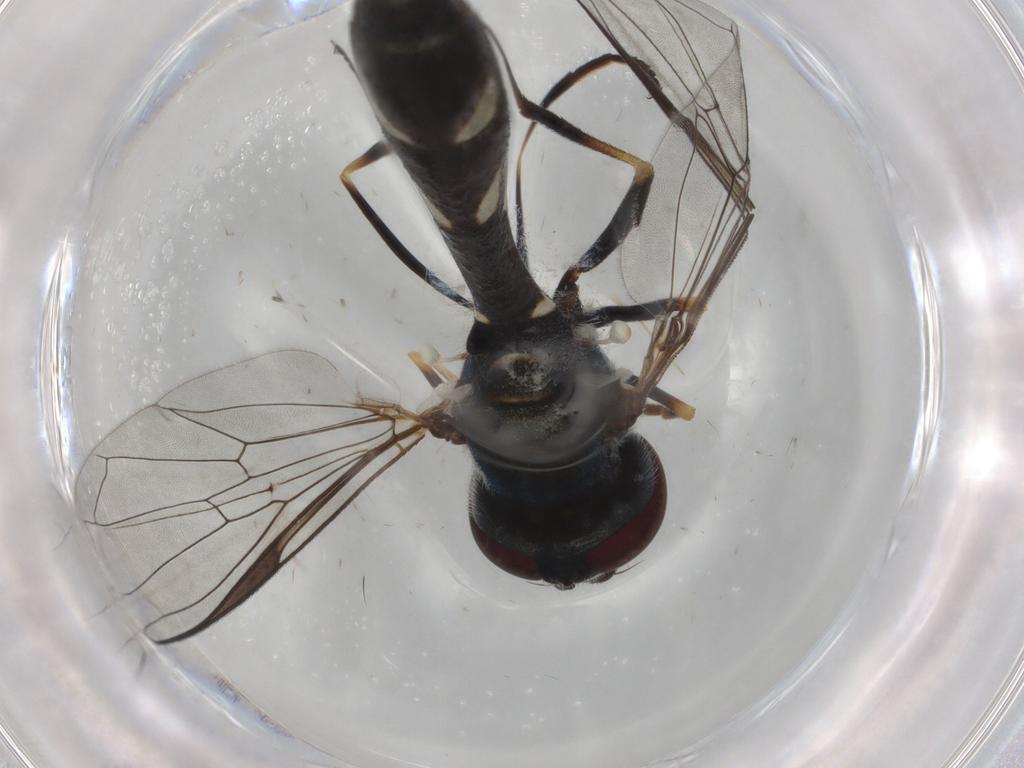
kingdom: Animalia
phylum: Arthropoda
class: Insecta
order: Diptera
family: Syrphidae
